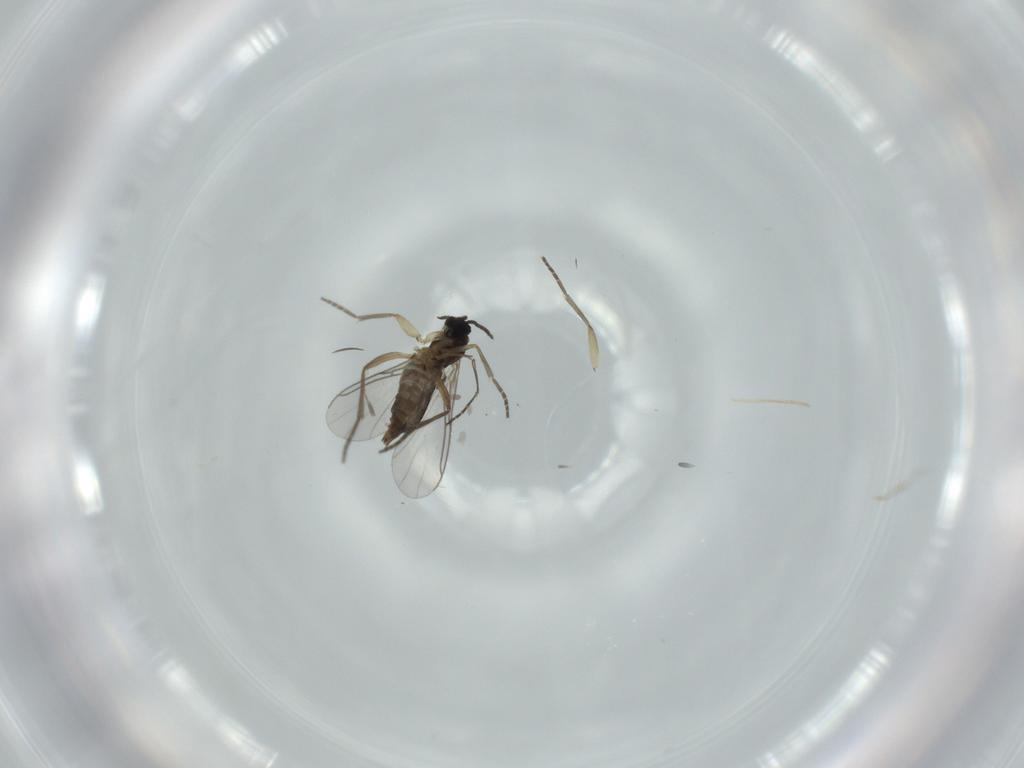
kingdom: Animalia
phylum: Arthropoda
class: Insecta
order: Diptera
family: Sciaridae
